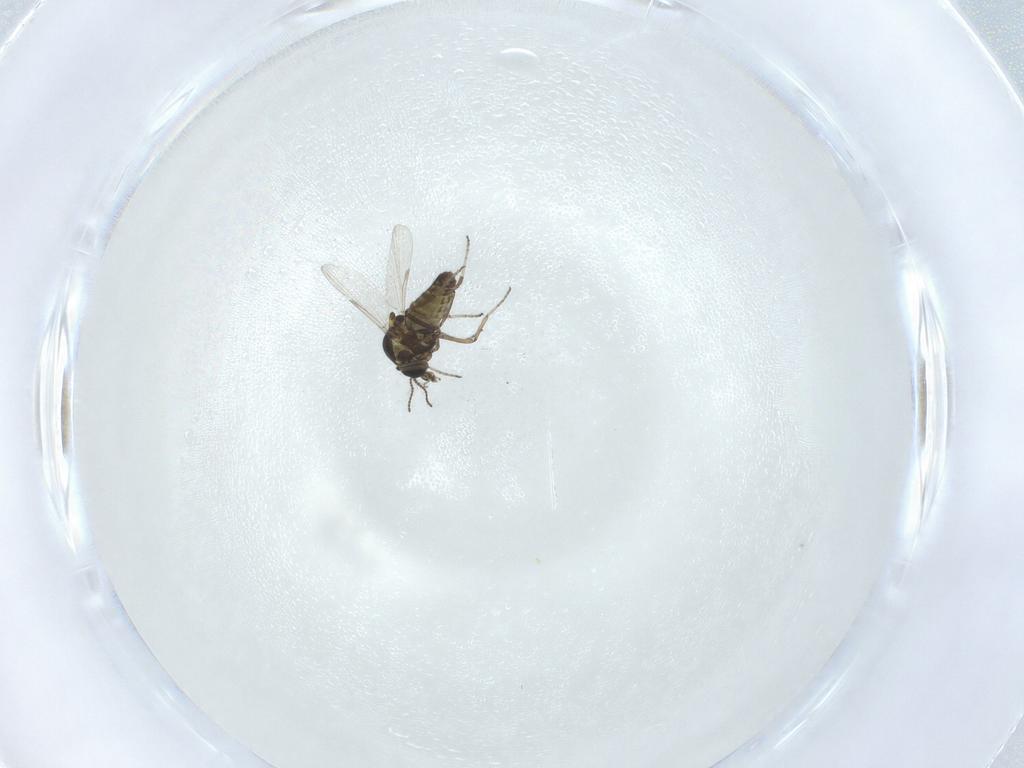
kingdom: Animalia
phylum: Arthropoda
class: Insecta
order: Diptera
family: Ceratopogonidae
